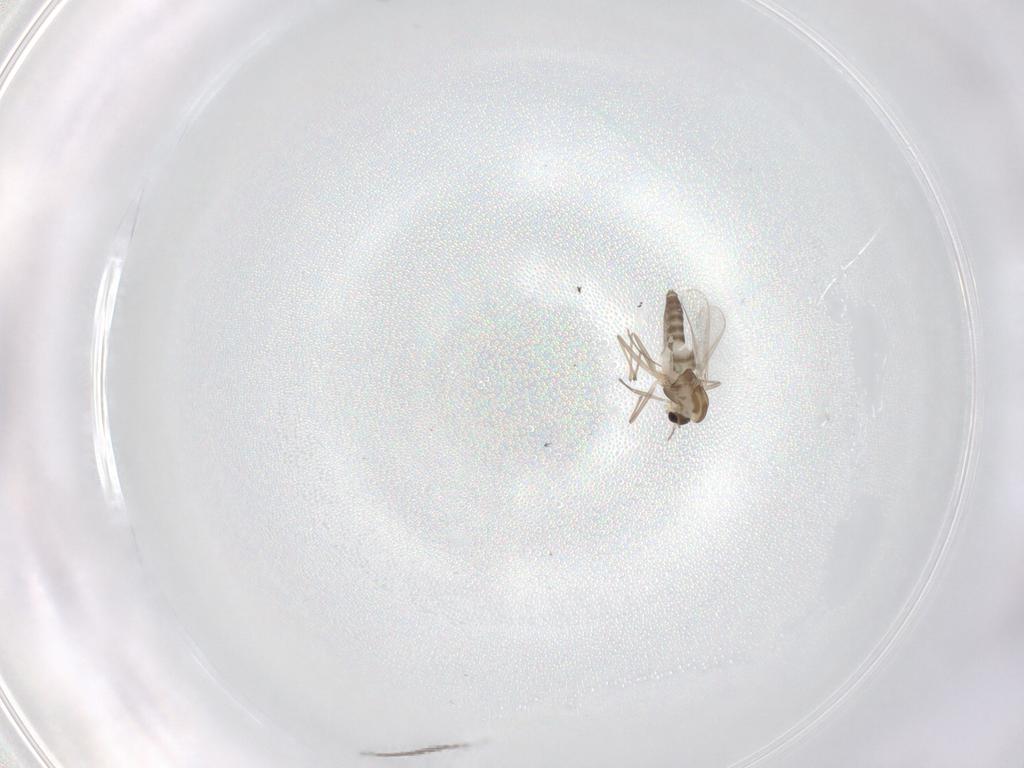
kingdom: Animalia
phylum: Arthropoda
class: Insecta
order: Diptera
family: Chironomidae
